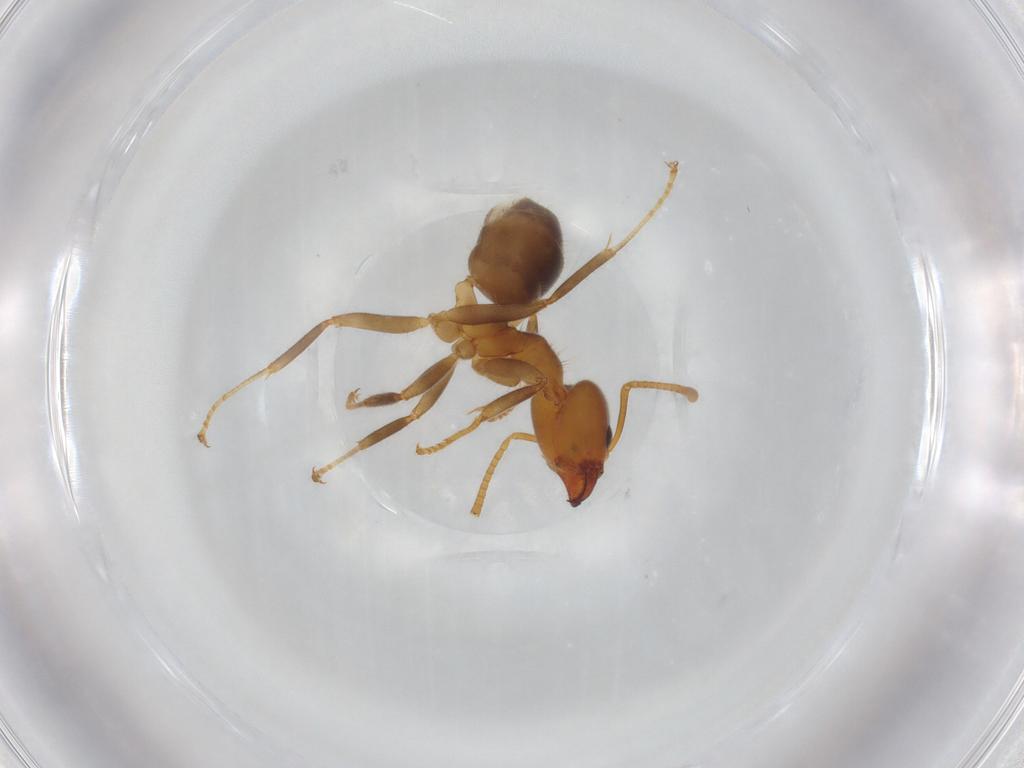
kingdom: Animalia
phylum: Arthropoda
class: Insecta
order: Hymenoptera
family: Formicidae
